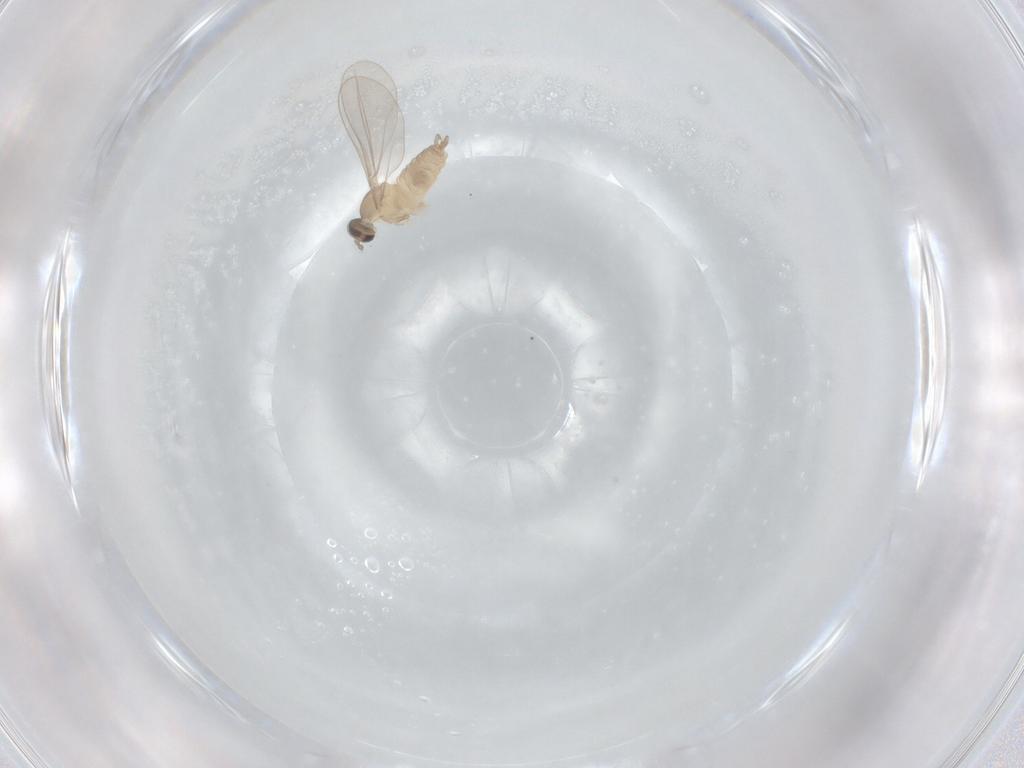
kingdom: Animalia
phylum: Arthropoda
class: Insecta
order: Diptera
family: Cecidomyiidae
